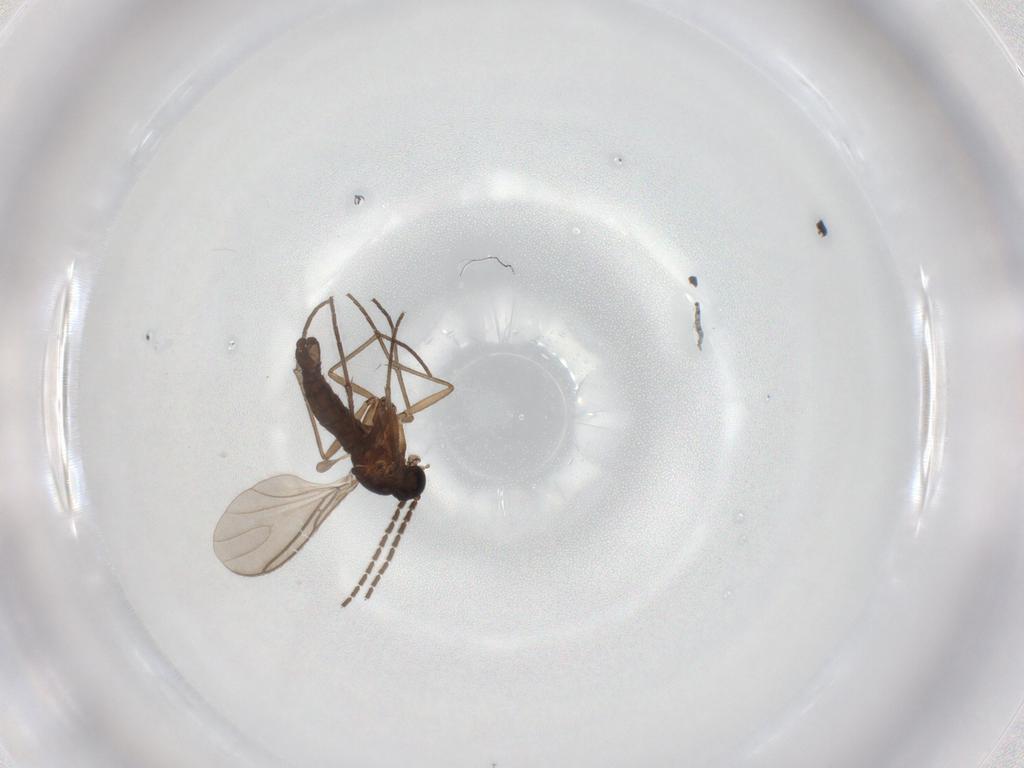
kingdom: Animalia
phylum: Arthropoda
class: Insecta
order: Diptera
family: Sciaridae
